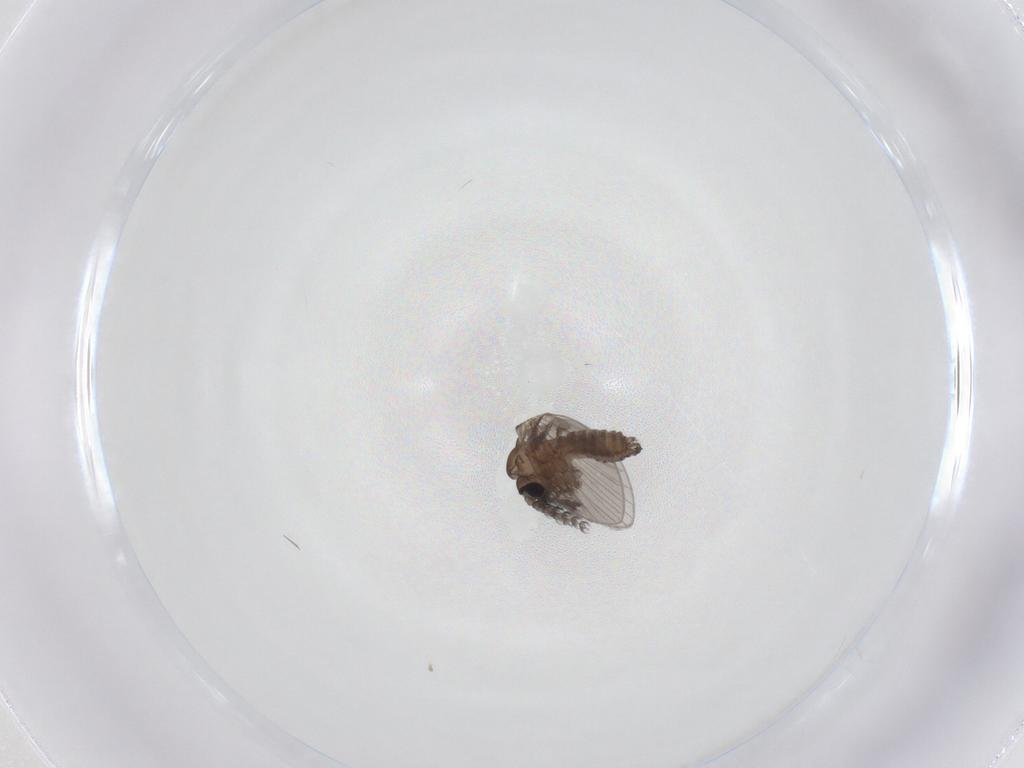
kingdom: Animalia
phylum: Arthropoda
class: Insecta
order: Diptera
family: Psychodidae
